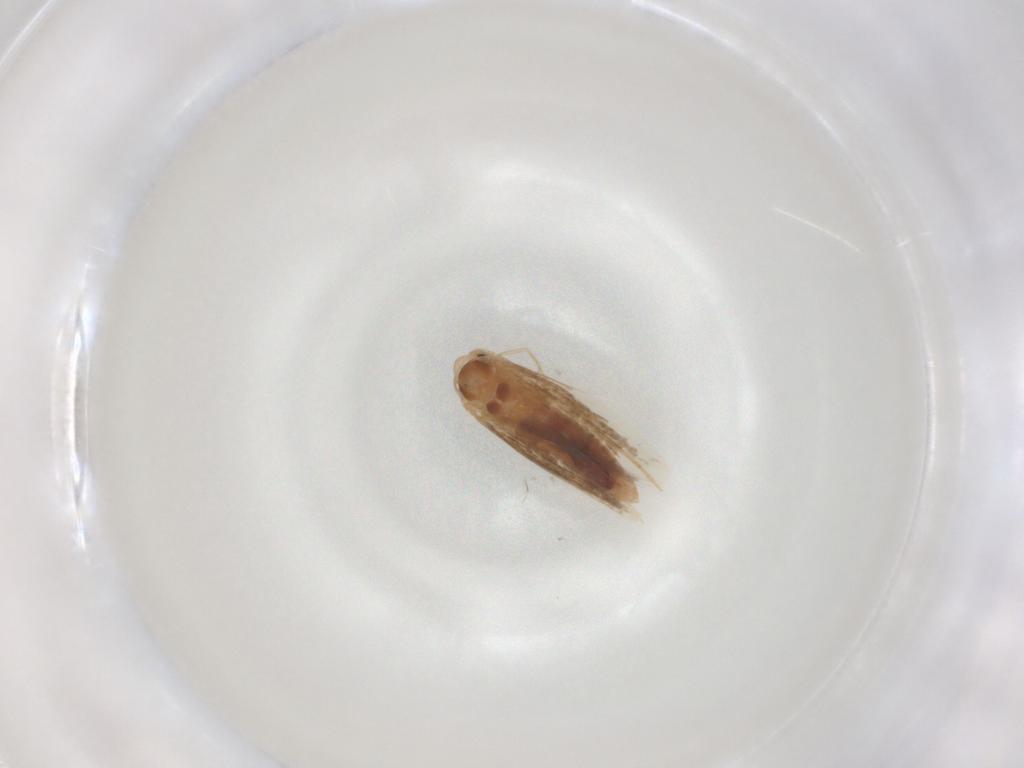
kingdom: Animalia
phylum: Arthropoda
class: Insecta
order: Lepidoptera
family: Bucculatricidae
